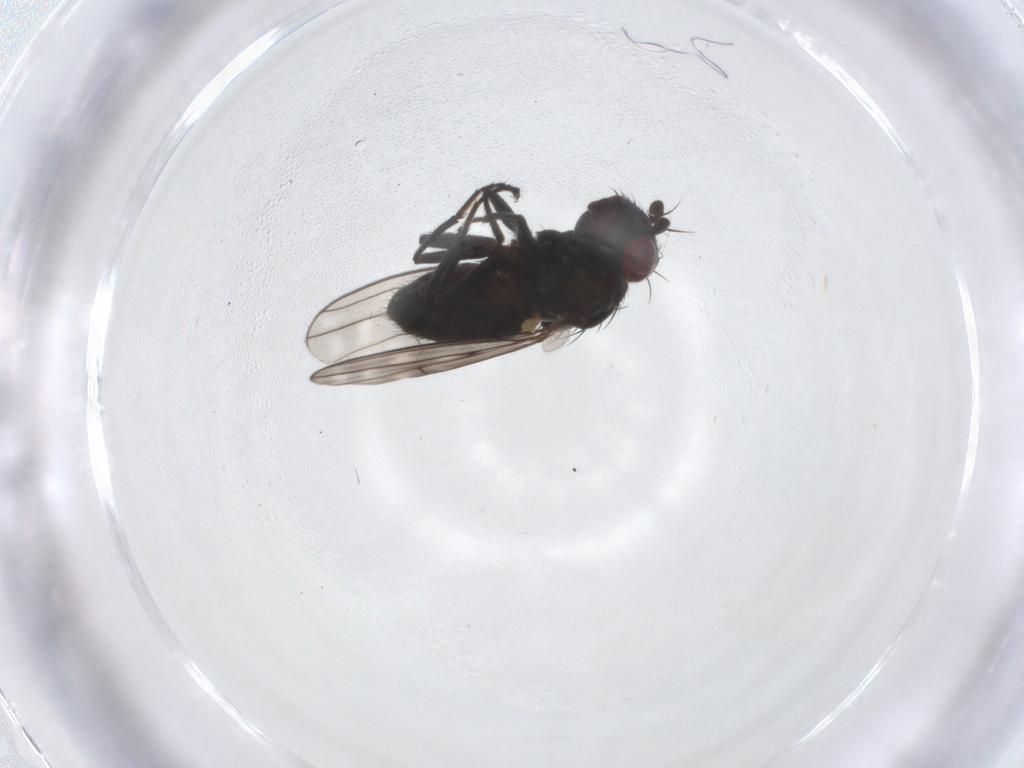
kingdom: Animalia
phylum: Arthropoda
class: Insecta
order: Diptera
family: Ephydridae
